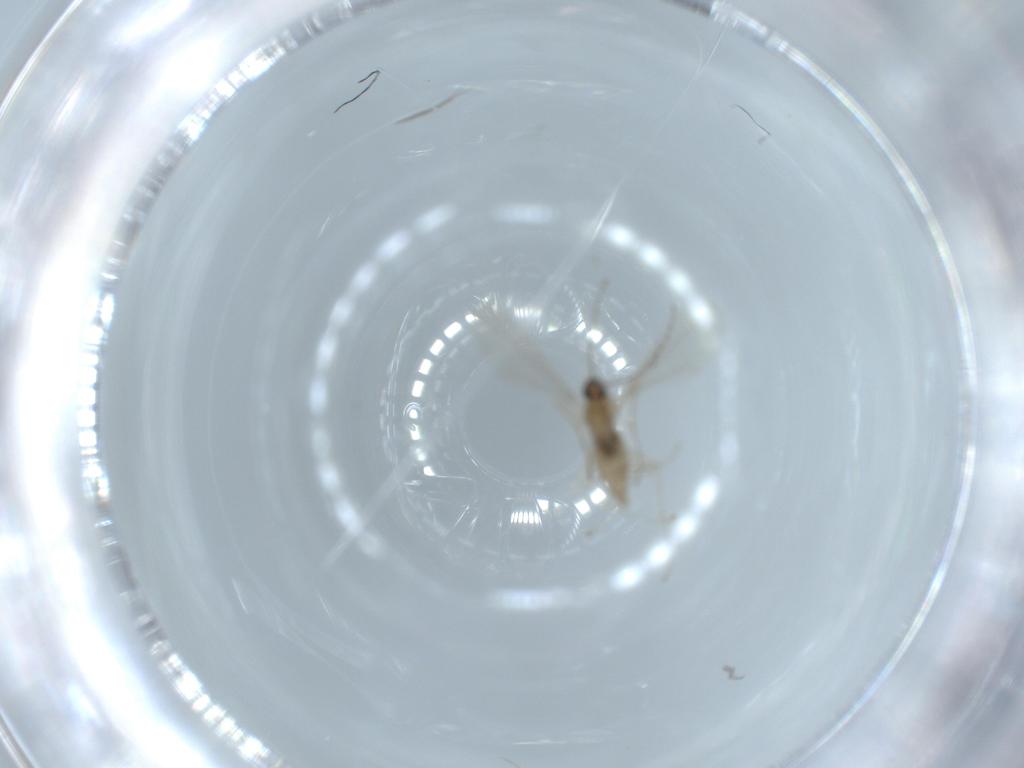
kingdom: Animalia
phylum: Arthropoda
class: Insecta
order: Diptera
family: Cecidomyiidae
